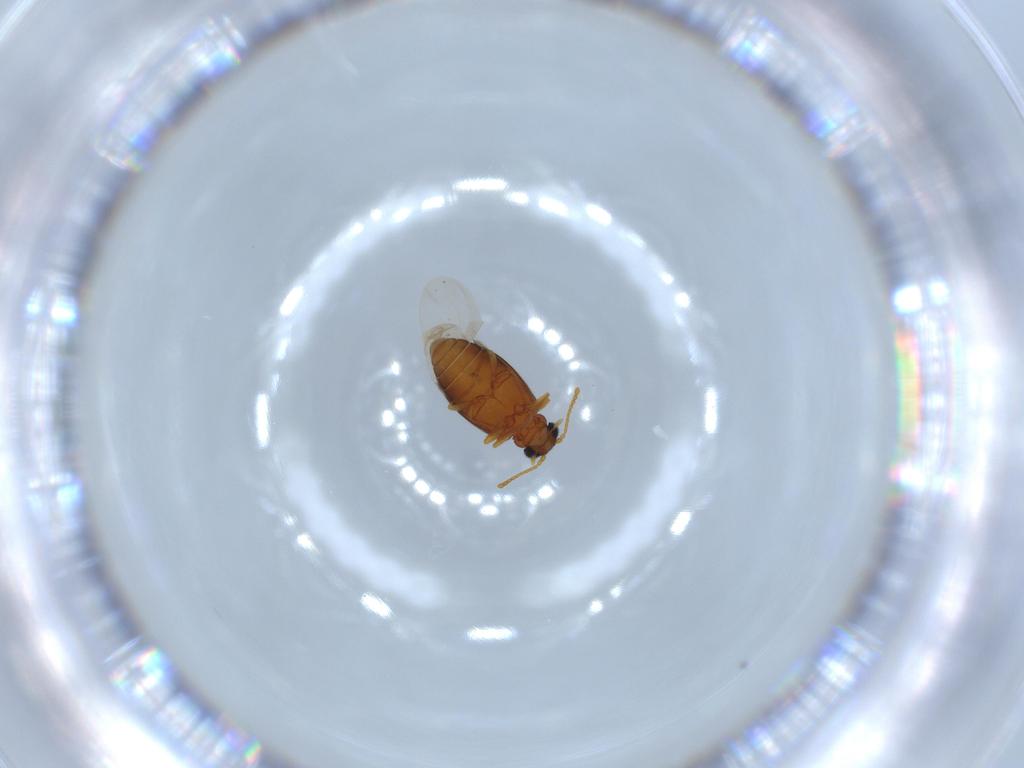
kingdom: Animalia
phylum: Arthropoda
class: Insecta
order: Coleoptera
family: Aderidae
